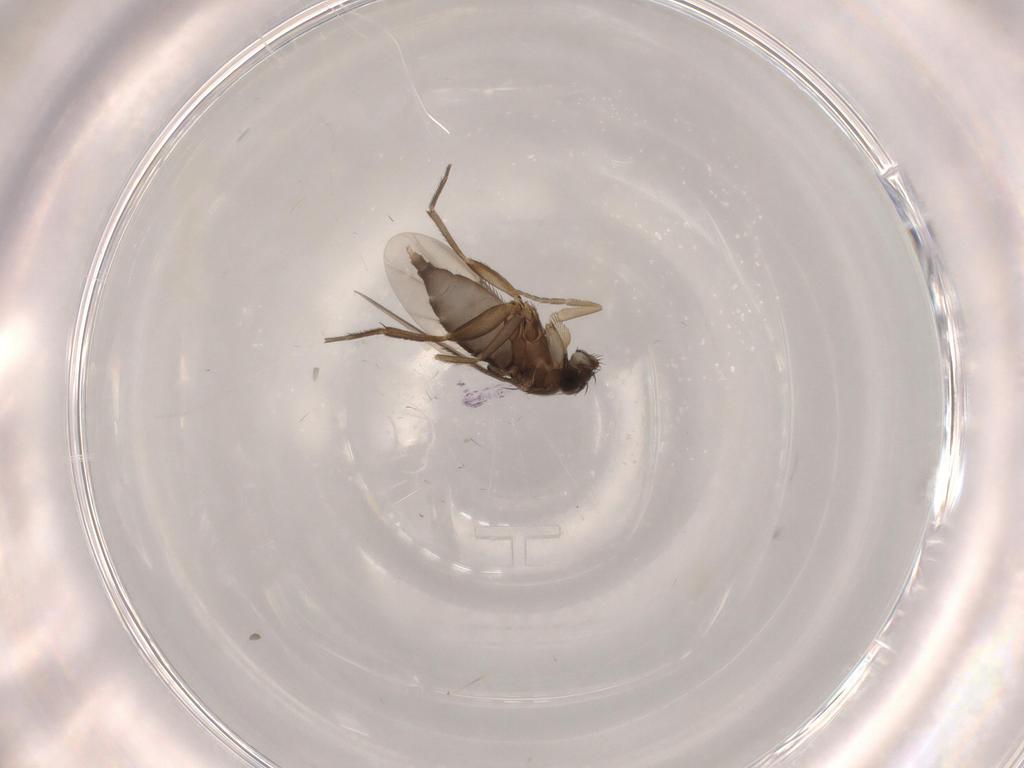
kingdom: Animalia
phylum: Arthropoda
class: Insecta
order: Diptera
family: Phoridae
